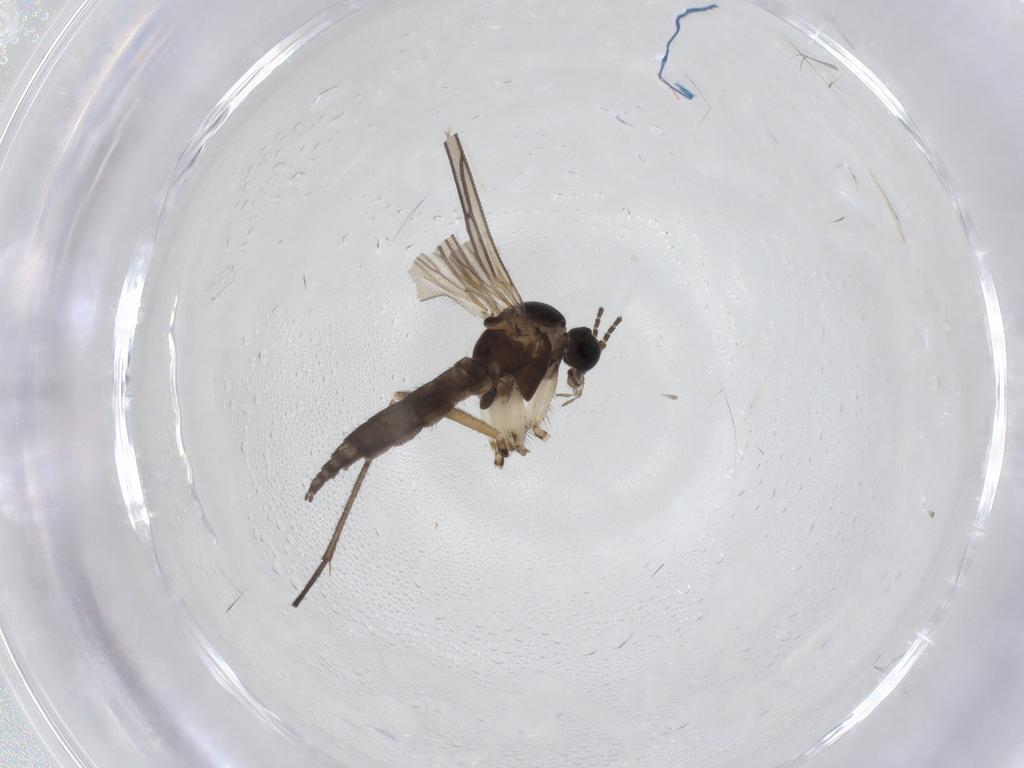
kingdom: Animalia
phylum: Arthropoda
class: Insecta
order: Diptera
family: Sciaridae
